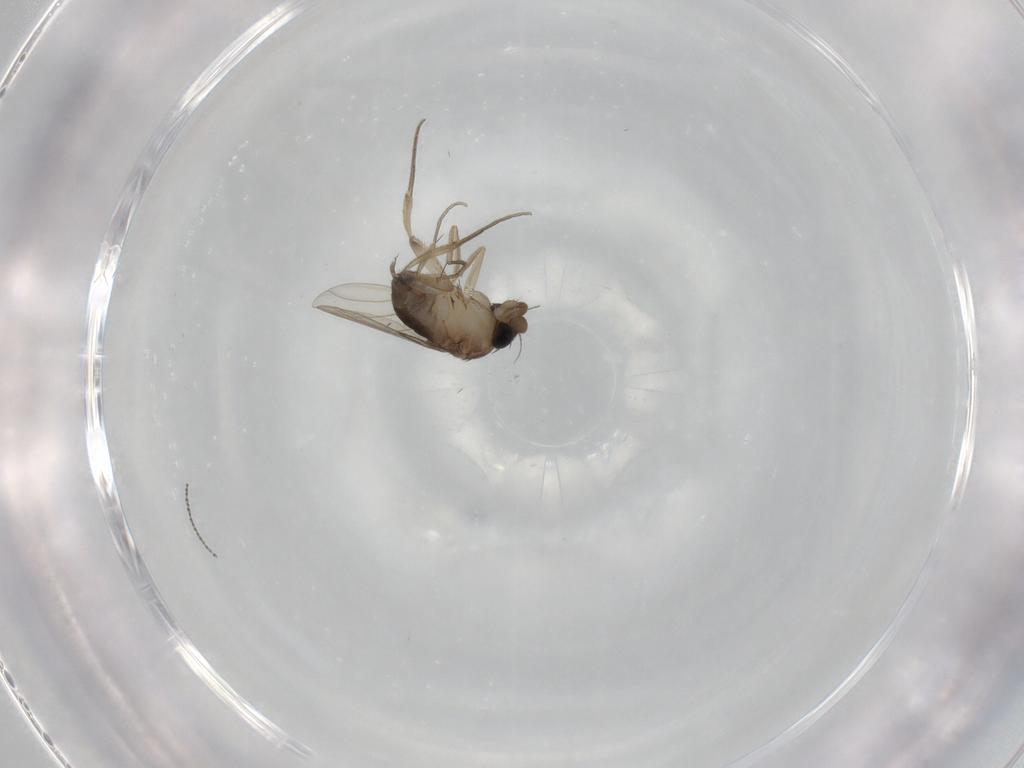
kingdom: Animalia
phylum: Arthropoda
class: Insecta
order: Diptera
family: Phoridae
